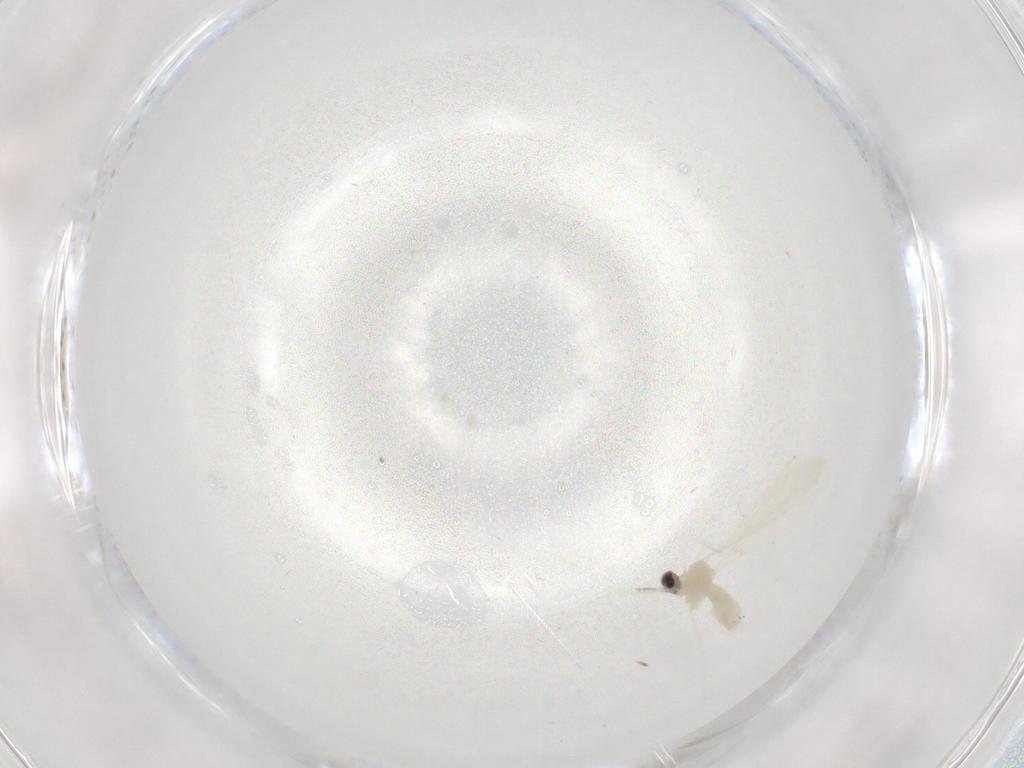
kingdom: Animalia
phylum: Arthropoda
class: Insecta
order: Diptera
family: Cecidomyiidae
